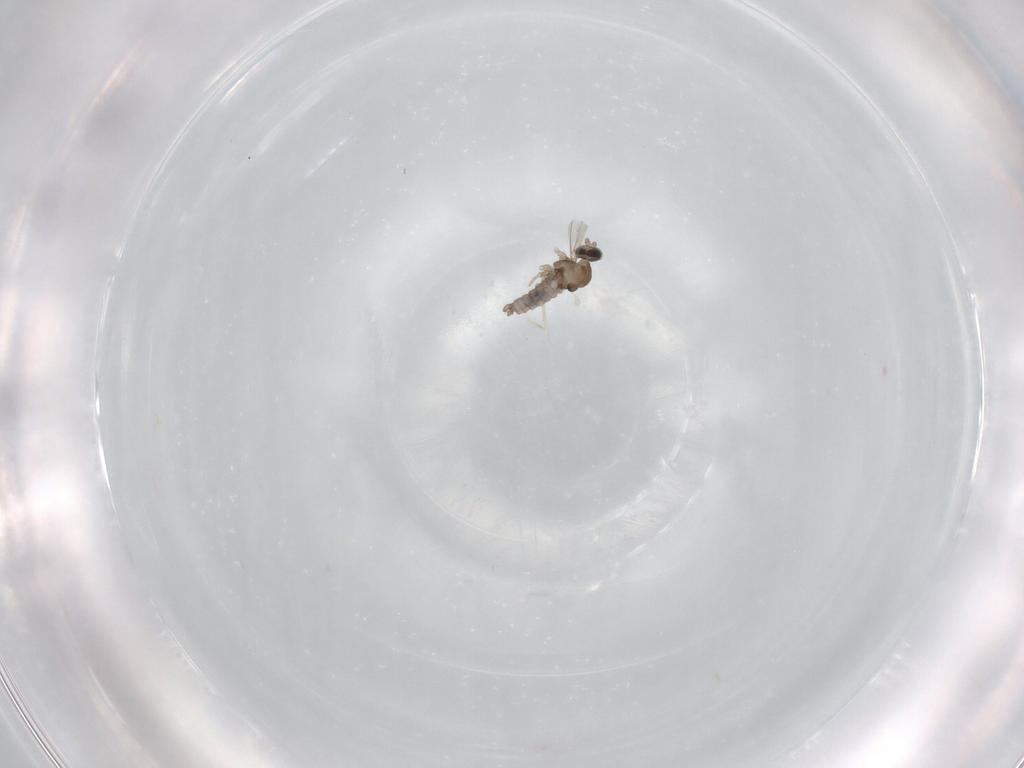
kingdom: Animalia
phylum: Arthropoda
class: Insecta
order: Diptera
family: Cecidomyiidae
